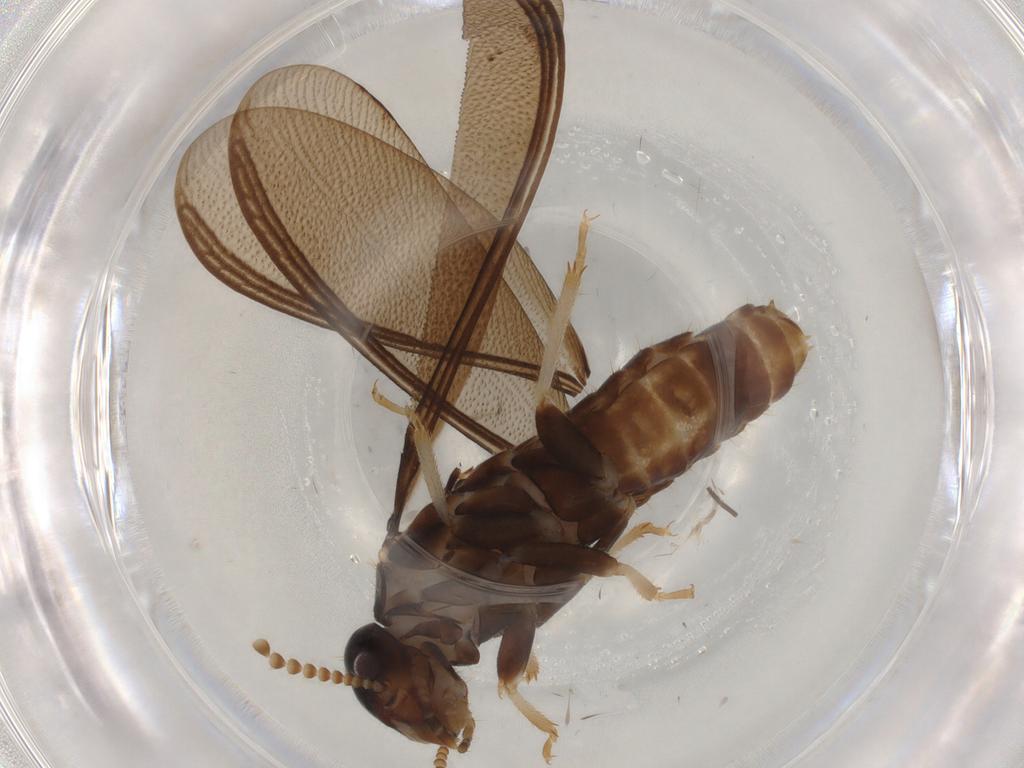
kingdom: Animalia
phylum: Arthropoda
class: Insecta
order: Blattodea
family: Kalotermitidae
